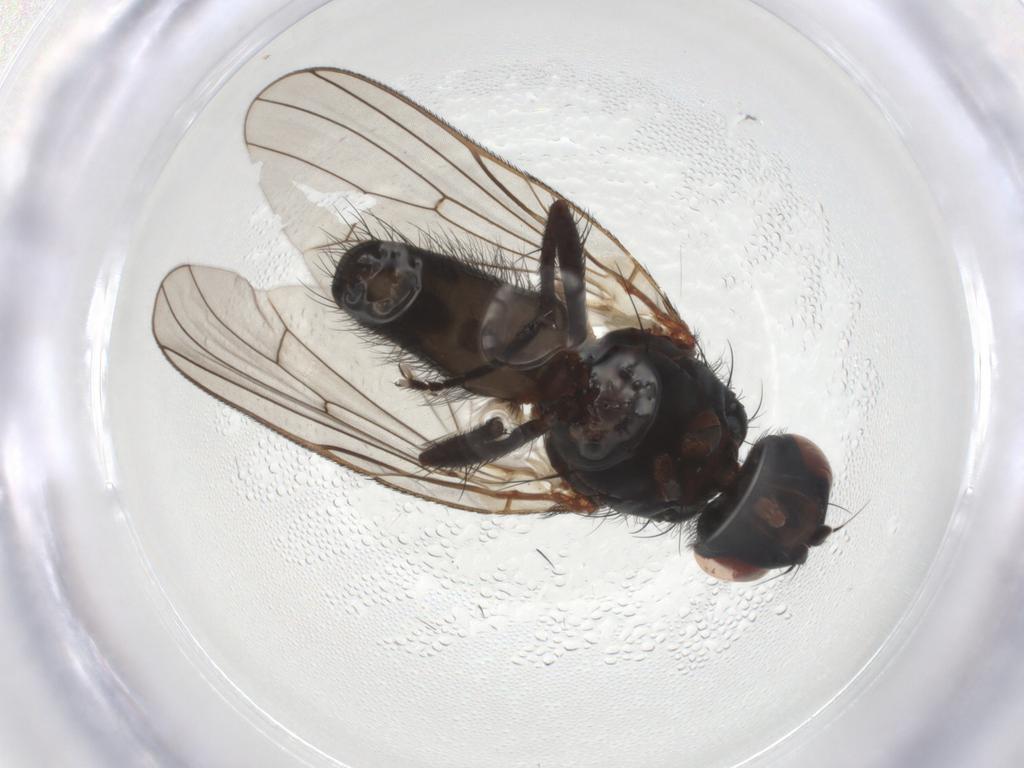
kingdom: Animalia
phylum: Arthropoda
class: Insecta
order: Diptera
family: Anthomyiidae
